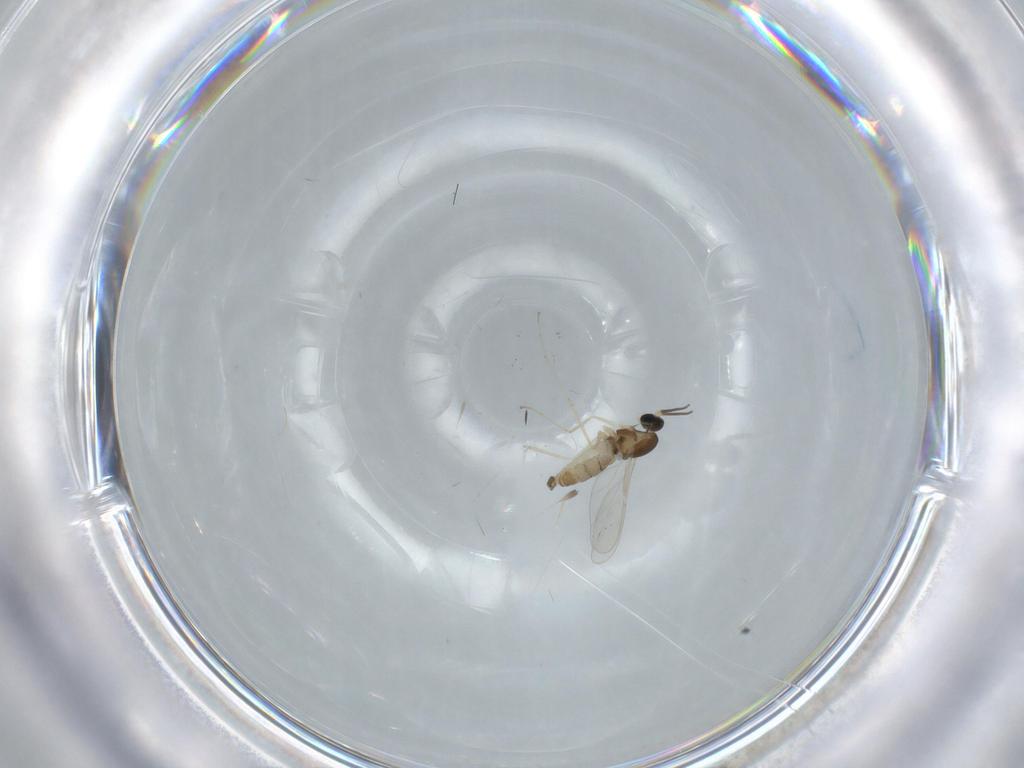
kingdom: Animalia
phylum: Arthropoda
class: Insecta
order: Diptera
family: Cecidomyiidae
